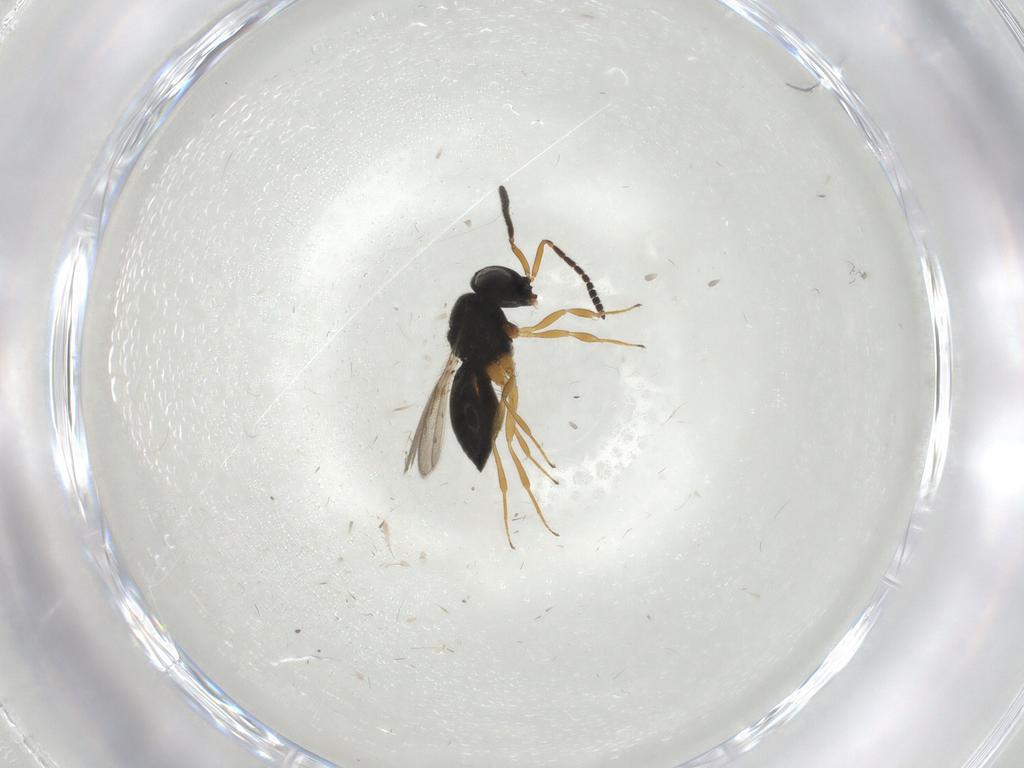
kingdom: Animalia
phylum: Arthropoda
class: Insecta
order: Hymenoptera
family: Scelionidae
